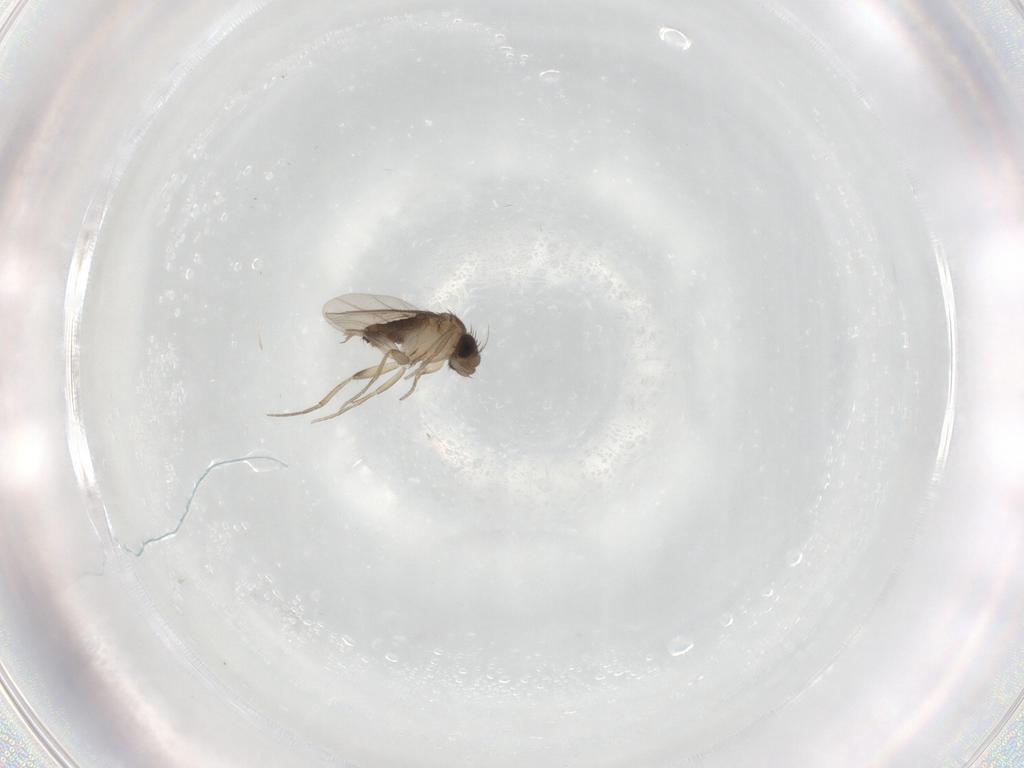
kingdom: Animalia
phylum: Arthropoda
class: Insecta
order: Diptera
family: Phoridae
